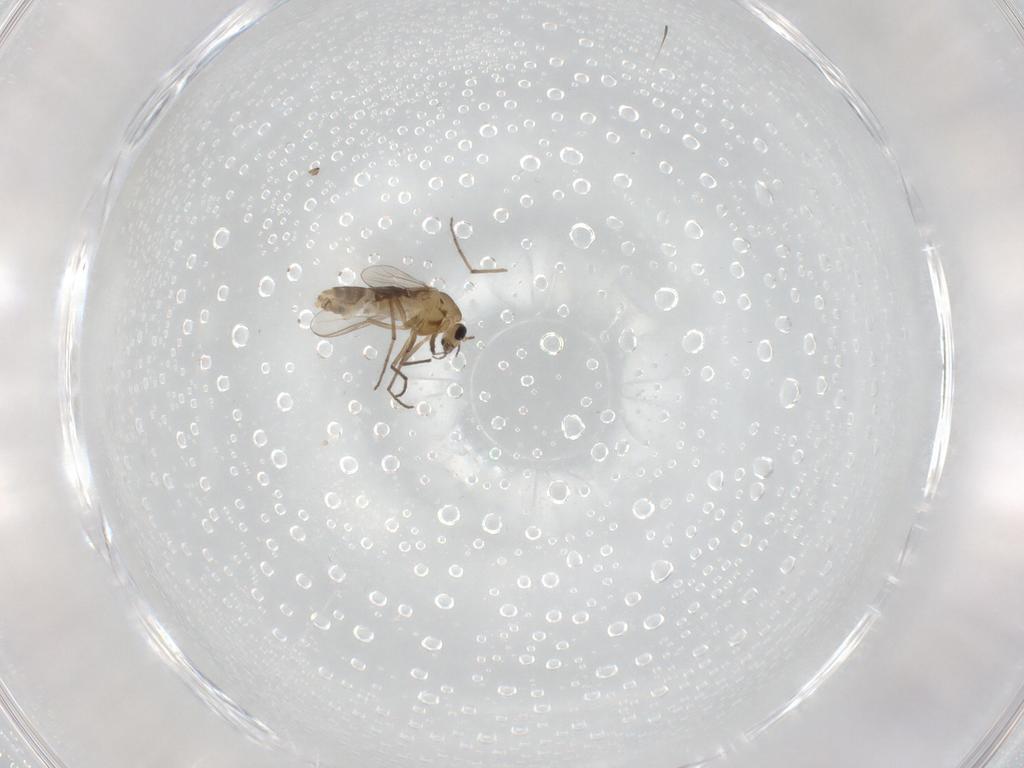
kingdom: Animalia
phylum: Arthropoda
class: Insecta
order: Diptera
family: Chironomidae
